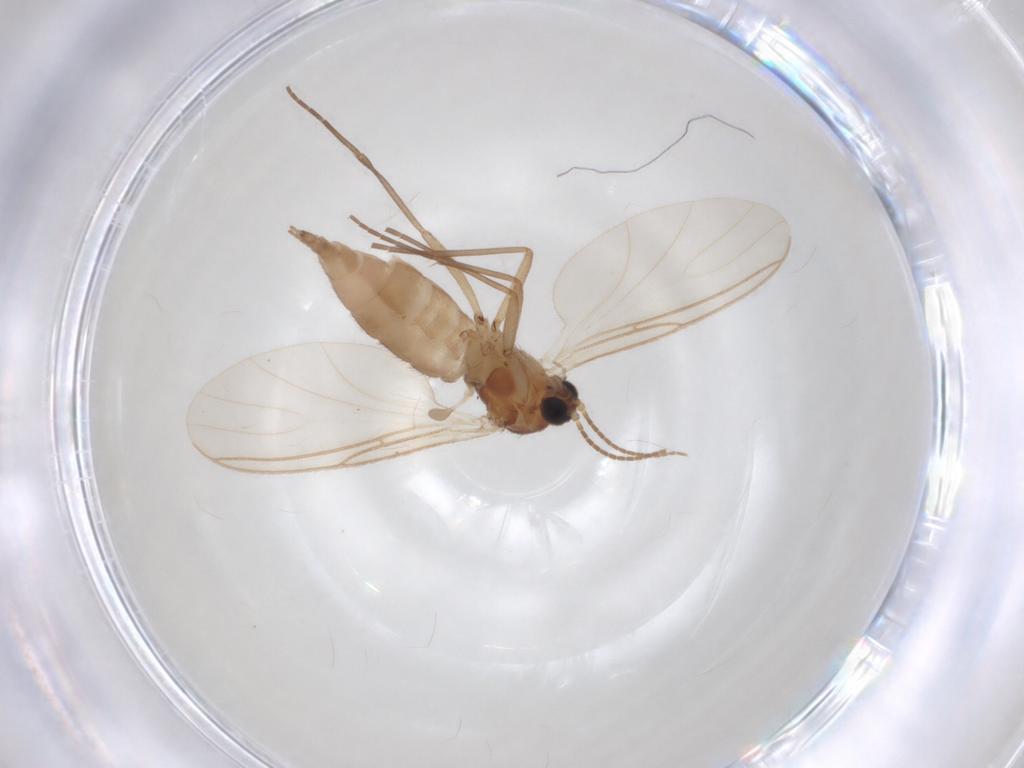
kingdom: Animalia
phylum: Arthropoda
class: Insecta
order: Diptera
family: Sciaridae
